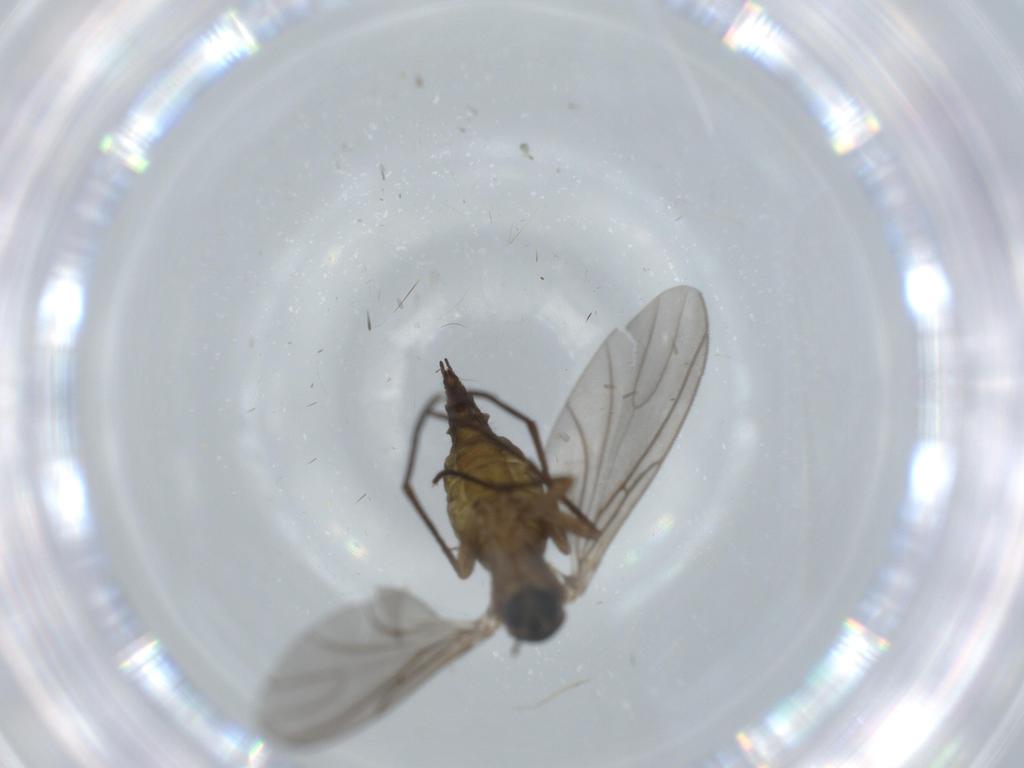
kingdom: Animalia
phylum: Arthropoda
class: Insecta
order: Diptera
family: Sciaridae
